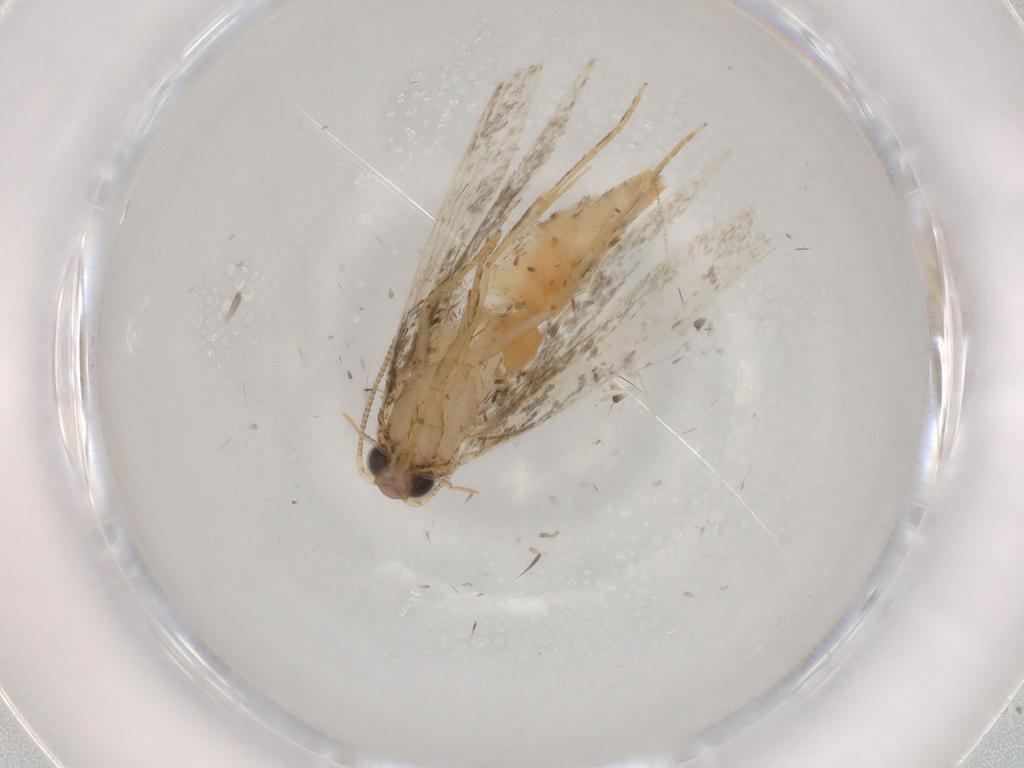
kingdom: Animalia
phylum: Arthropoda
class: Insecta
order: Lepidoptera
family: Tineidae
